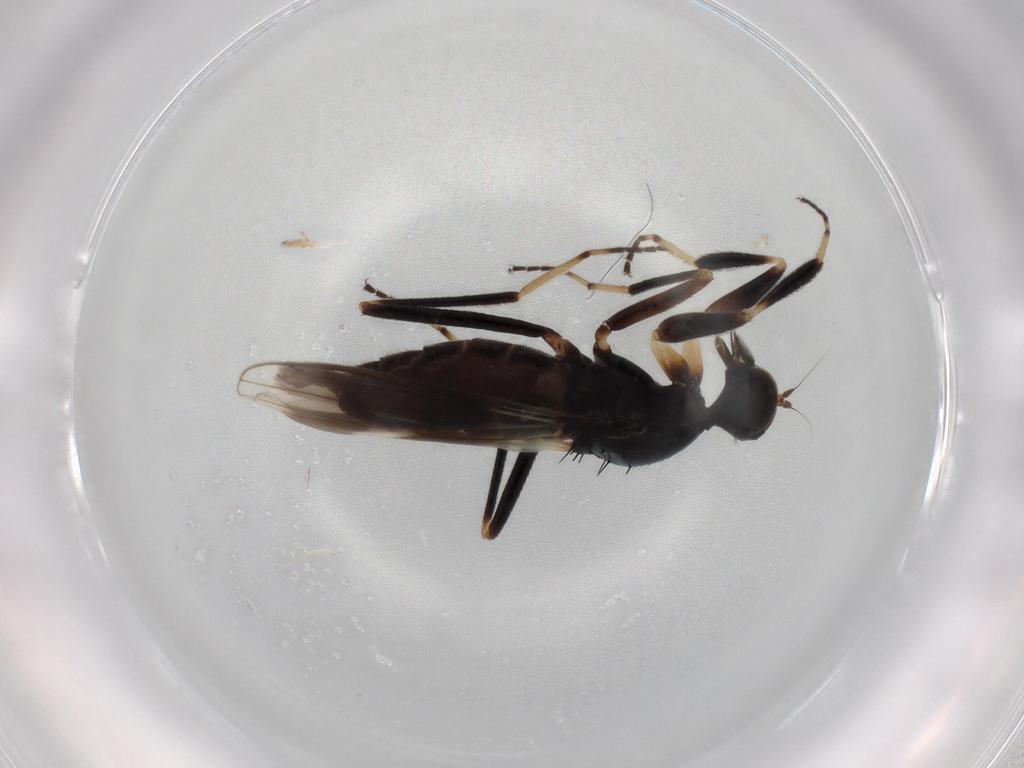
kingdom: Animalia
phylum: Arthropoda
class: Insecta
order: Diptera
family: Hybotidae
